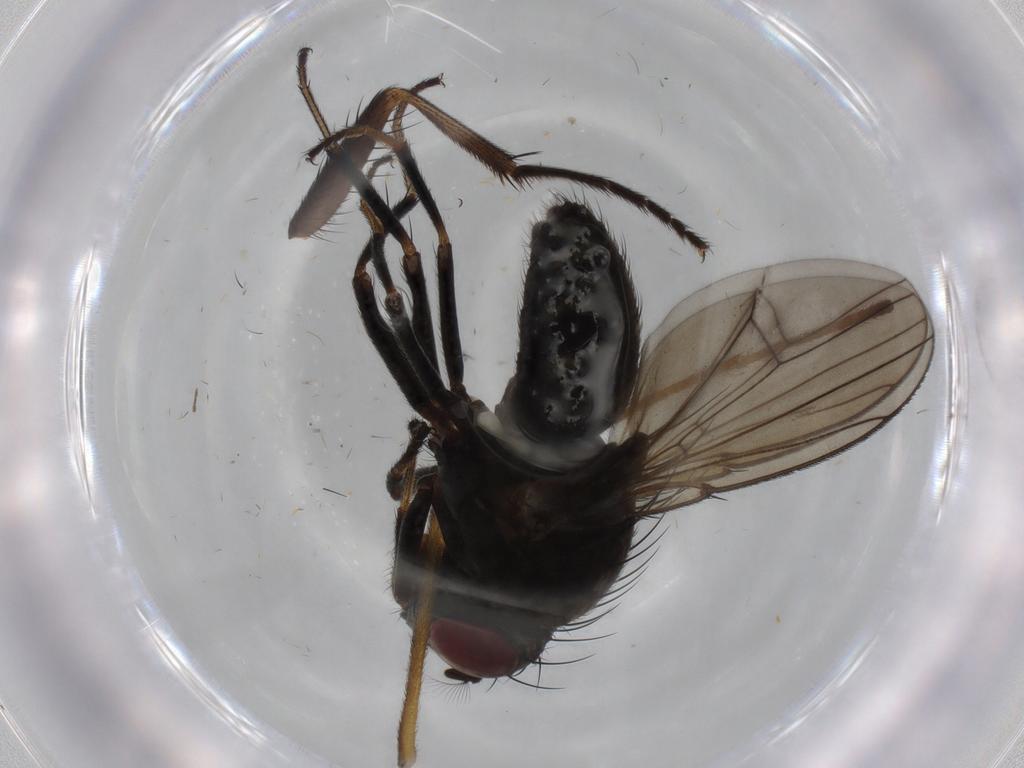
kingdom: Animalia
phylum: Arthropoda
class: Insecta
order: Diptera
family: Ephydridae
